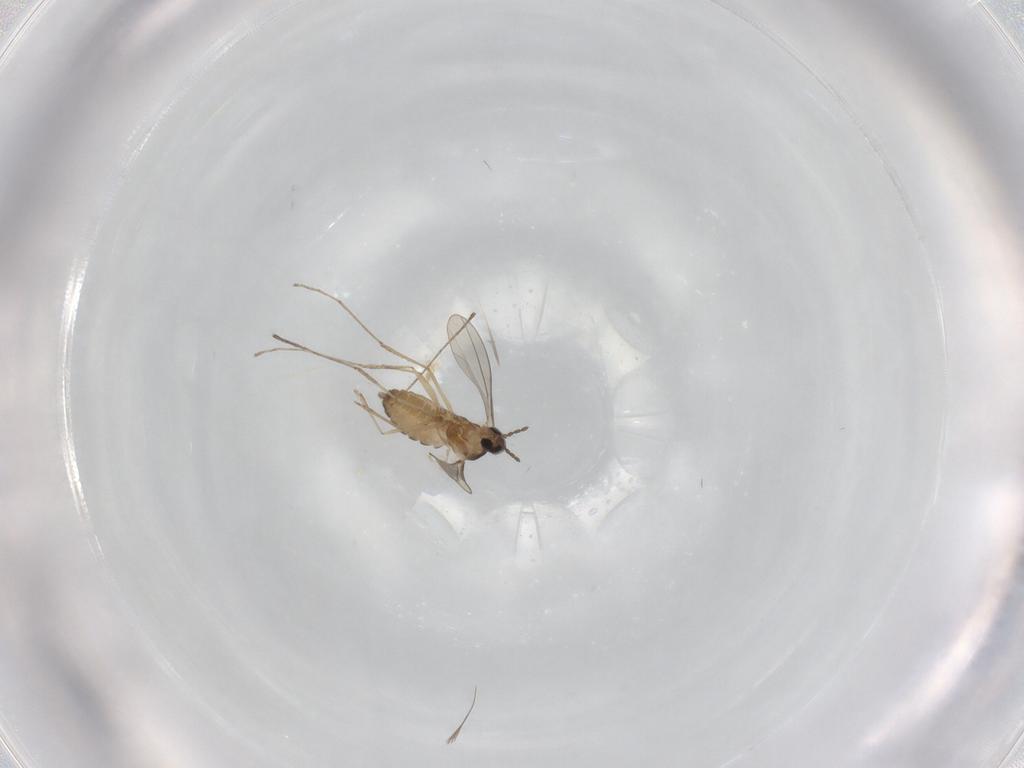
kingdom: Animalia
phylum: Arthropoda
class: Insecta
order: Diptera
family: Cecidomyiidae
